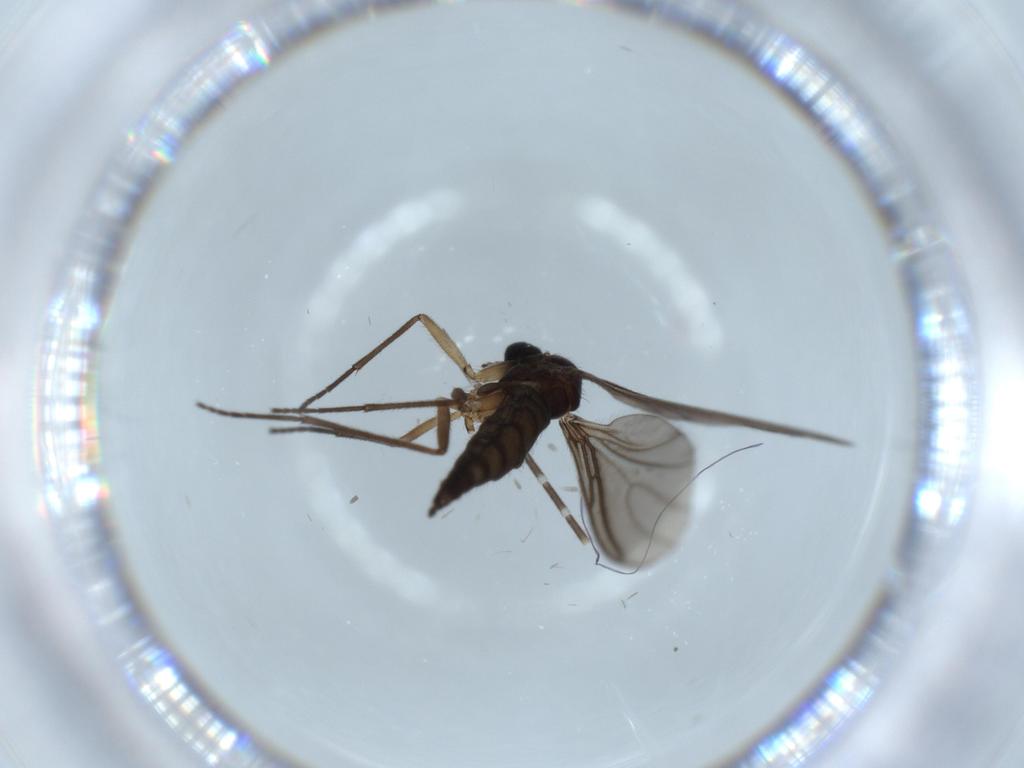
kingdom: Animalia
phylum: Arthropoda
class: Insecta
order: Diptera
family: Sciaridae
